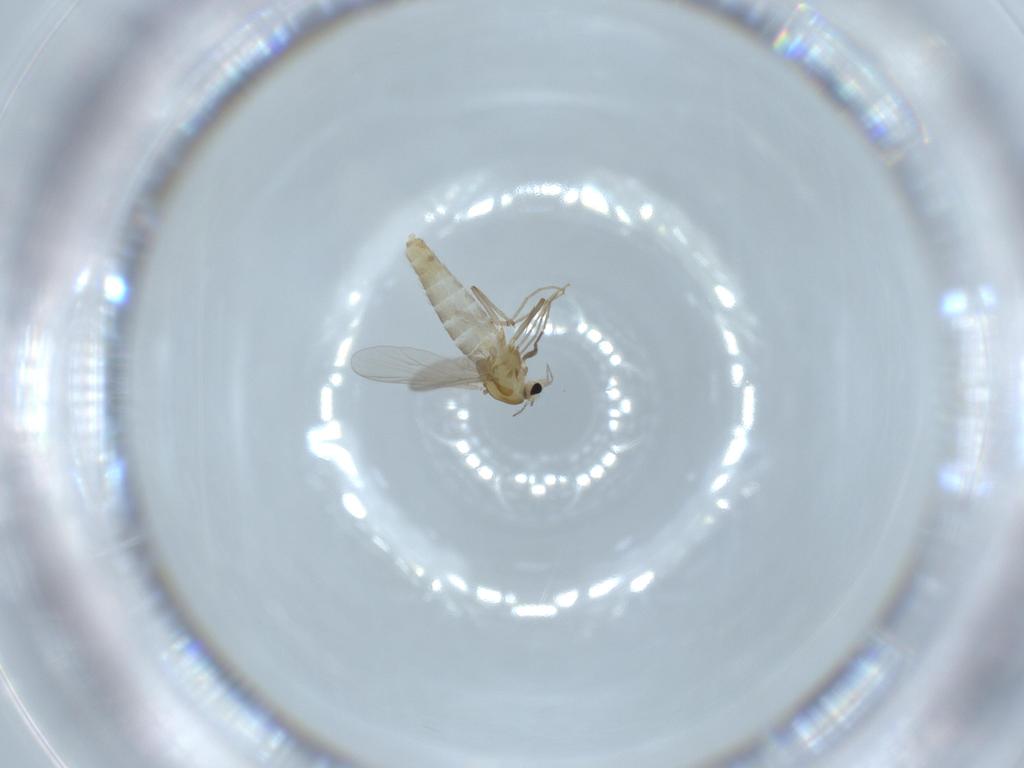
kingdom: Animalia
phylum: Arthropoda
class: Insecta
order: Diptera
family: Chironomidae
